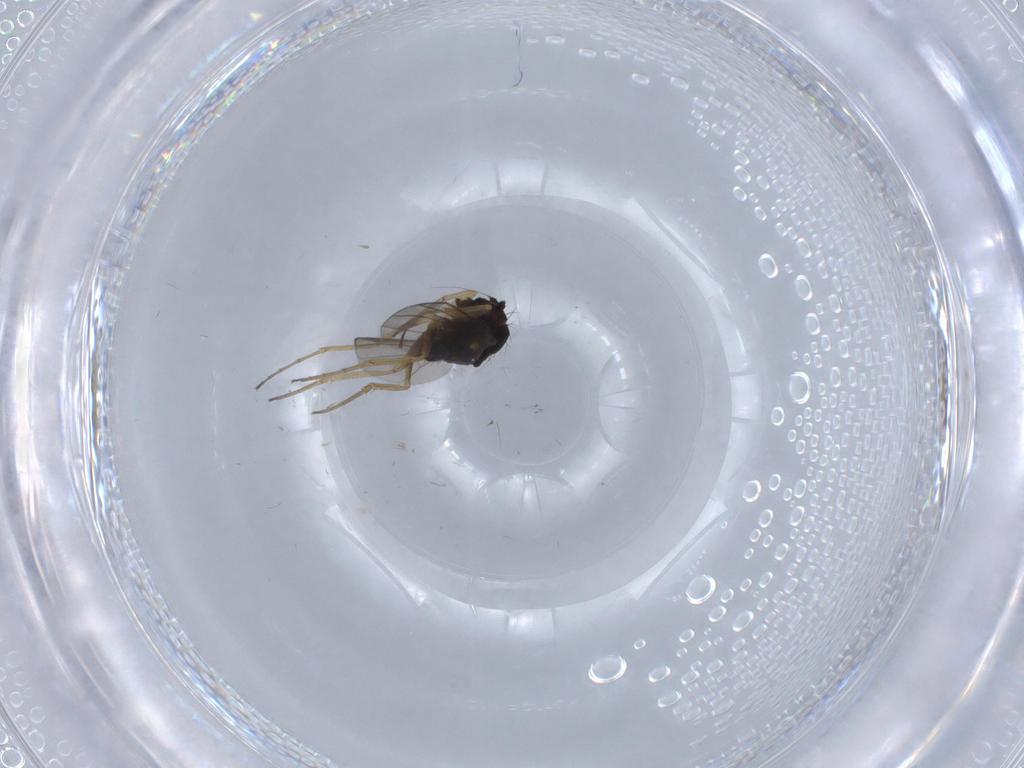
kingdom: Animalia
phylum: Arthropoda
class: Insecta
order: Diptera
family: Dolichopodidae
